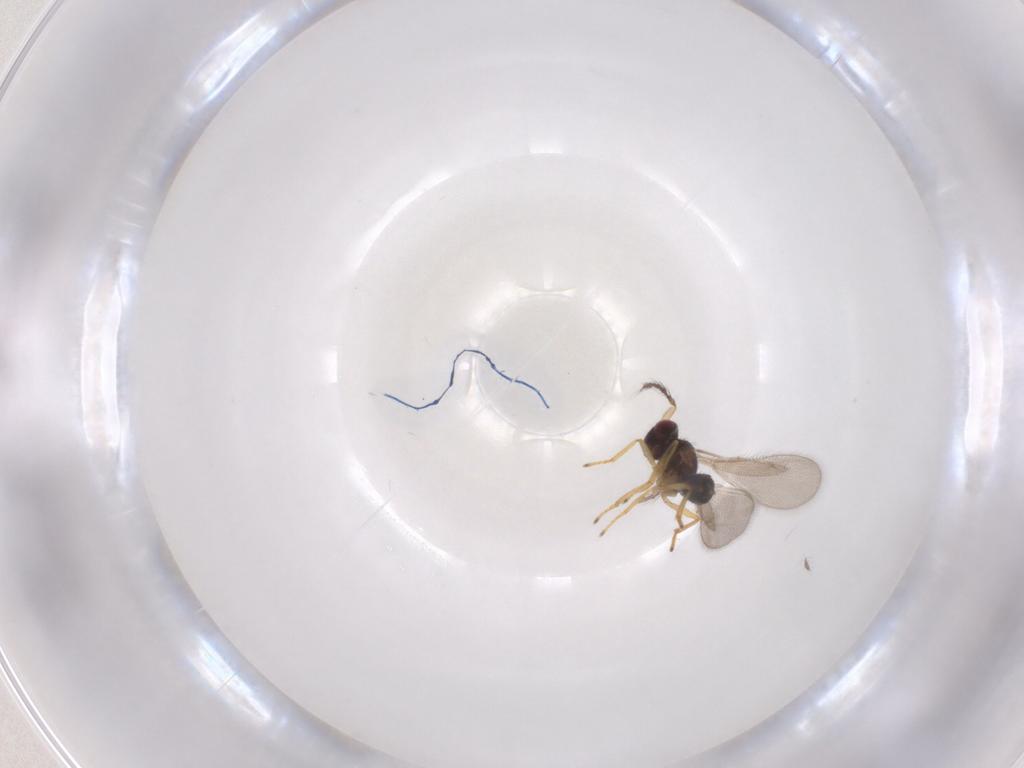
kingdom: Animalia
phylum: Arthropoda
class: Insecta
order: Hymenoptera
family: Eulophidae
